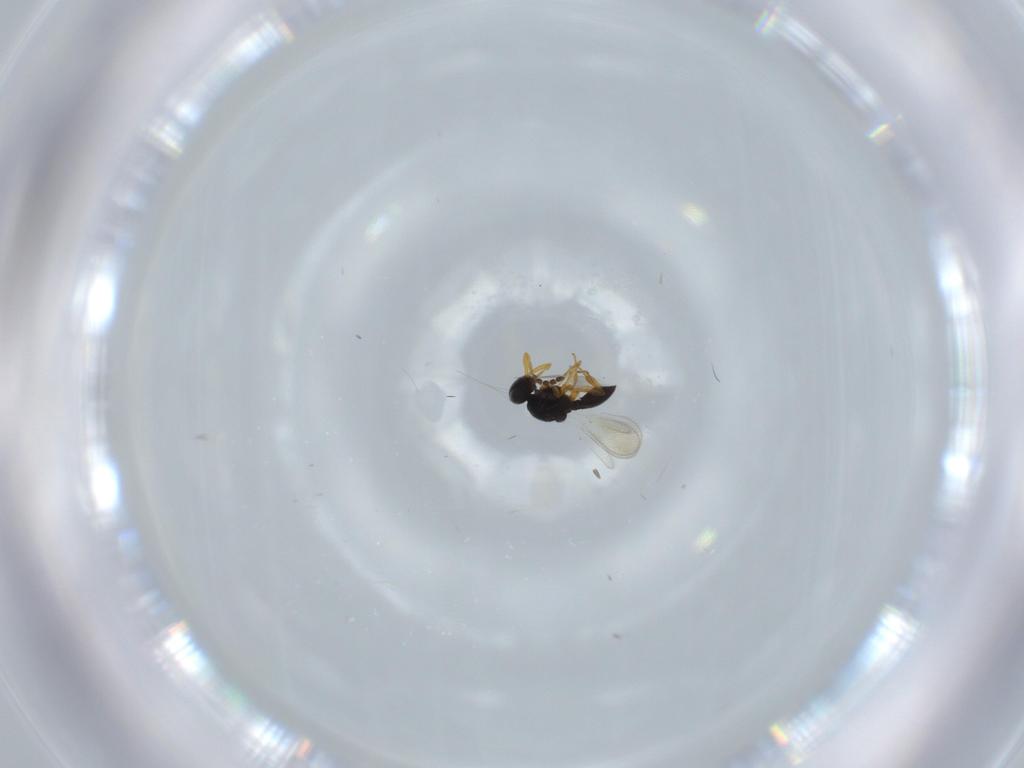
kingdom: Animalia
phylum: Arthropoda
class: Insecta
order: Hymenoptera
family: Platygastridae
